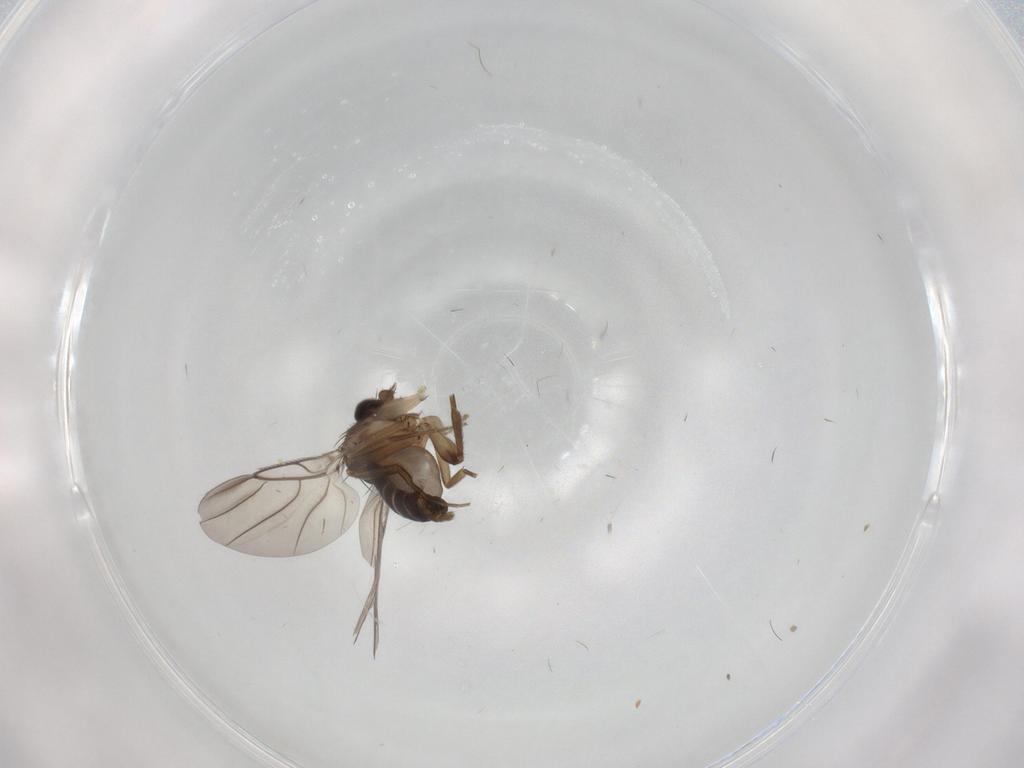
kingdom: Animalia
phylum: Arthropoda
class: Insecta
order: Diptera
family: Phoridae
